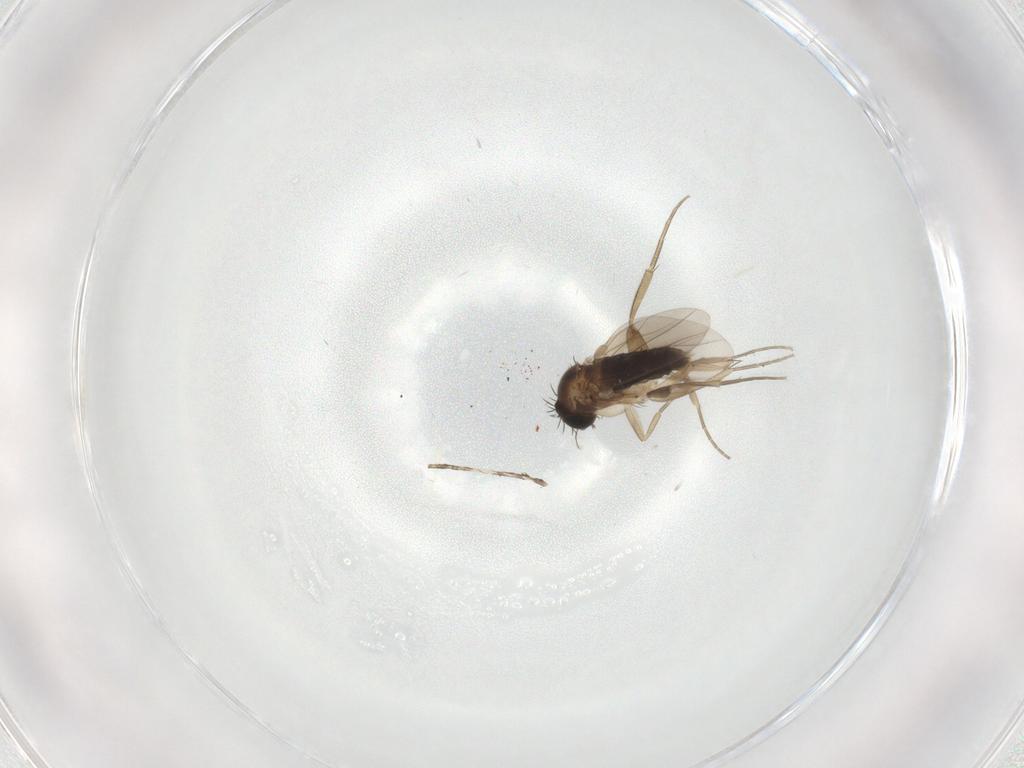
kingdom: Animalia
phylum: Arthropoda
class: Insecta
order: Diptera
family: Phoridae
